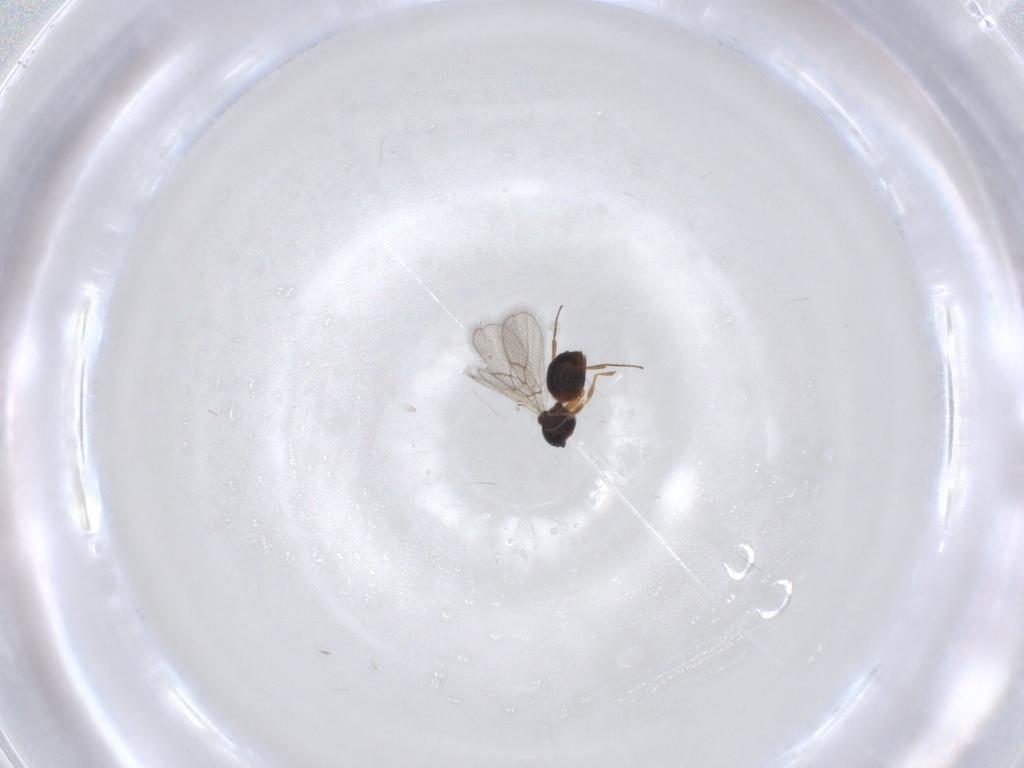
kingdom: Animalia
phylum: Arthropoda
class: Insecta
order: Hymenoptera
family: Figitidae
